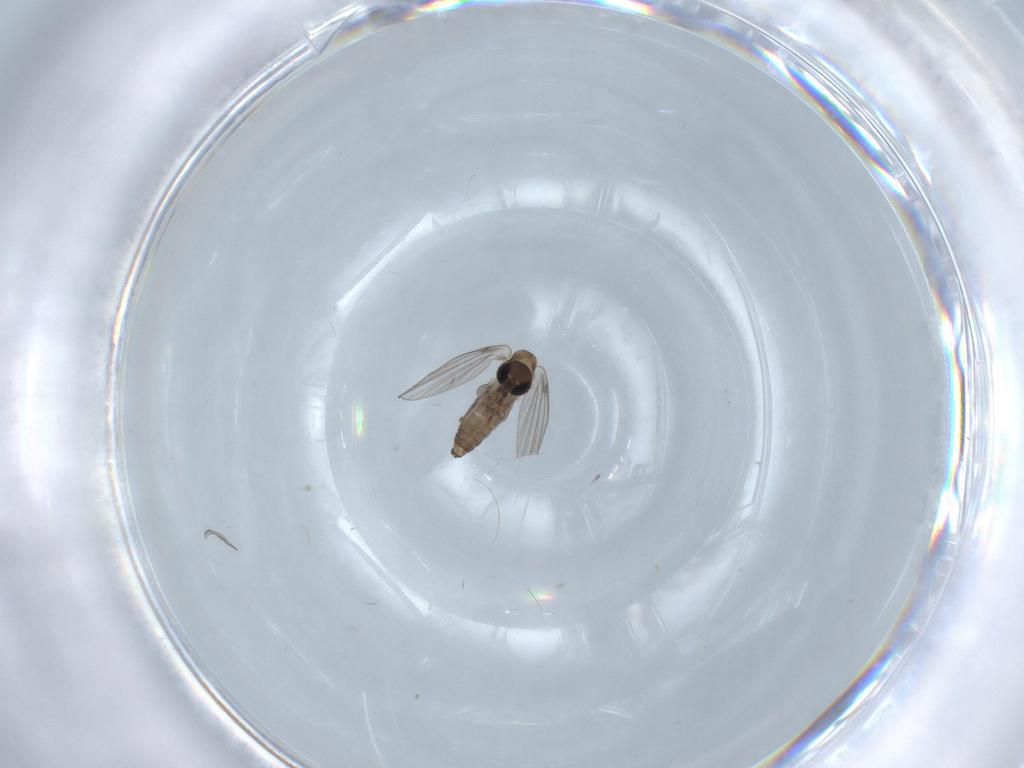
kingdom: Animalia
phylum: Arthropoda
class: Insecta
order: Diptera
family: Psychodidae
